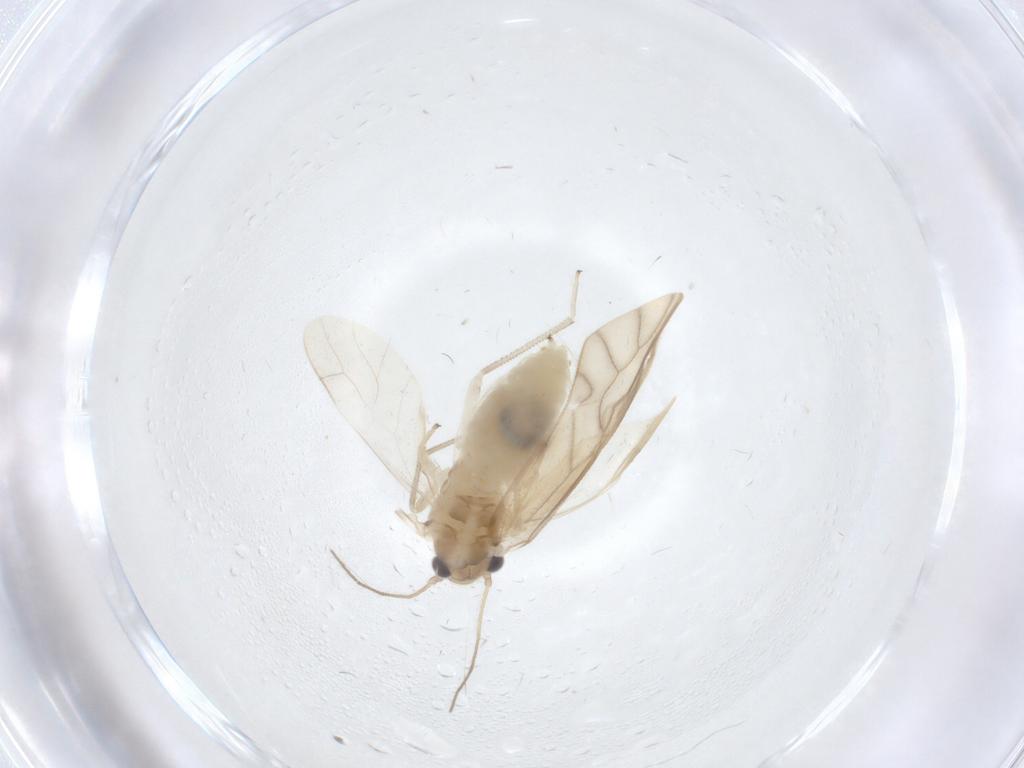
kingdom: Animalia
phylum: Arthropoda
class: Insecta
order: Psocodea
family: Caeciliusidae
